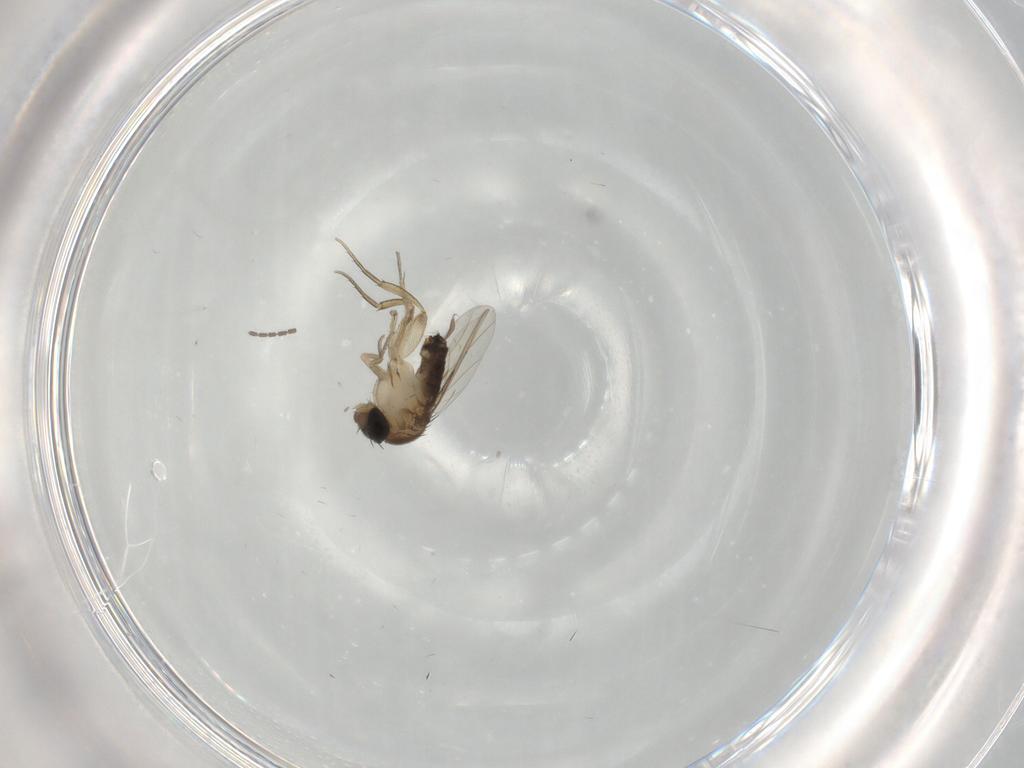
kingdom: Animalia
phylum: Arthropoda
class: Insecta
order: Diptera
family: Sciaridae
